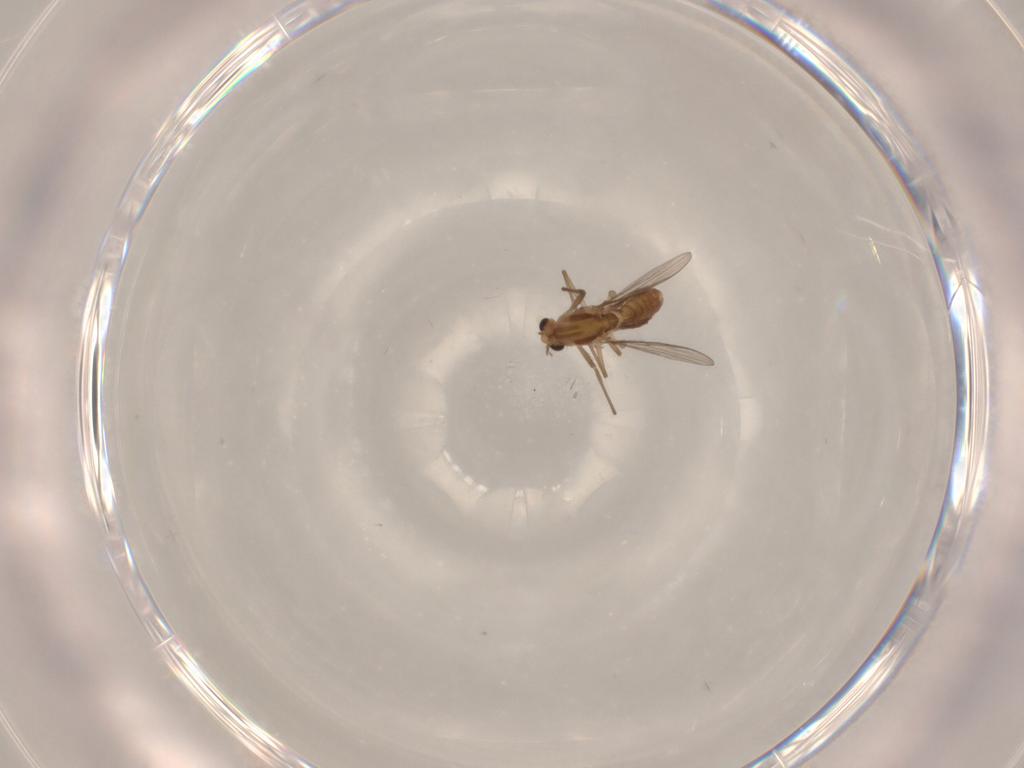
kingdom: Animalia
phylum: Arthropoda
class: Insecta
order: Diptera
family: Chironomidae
